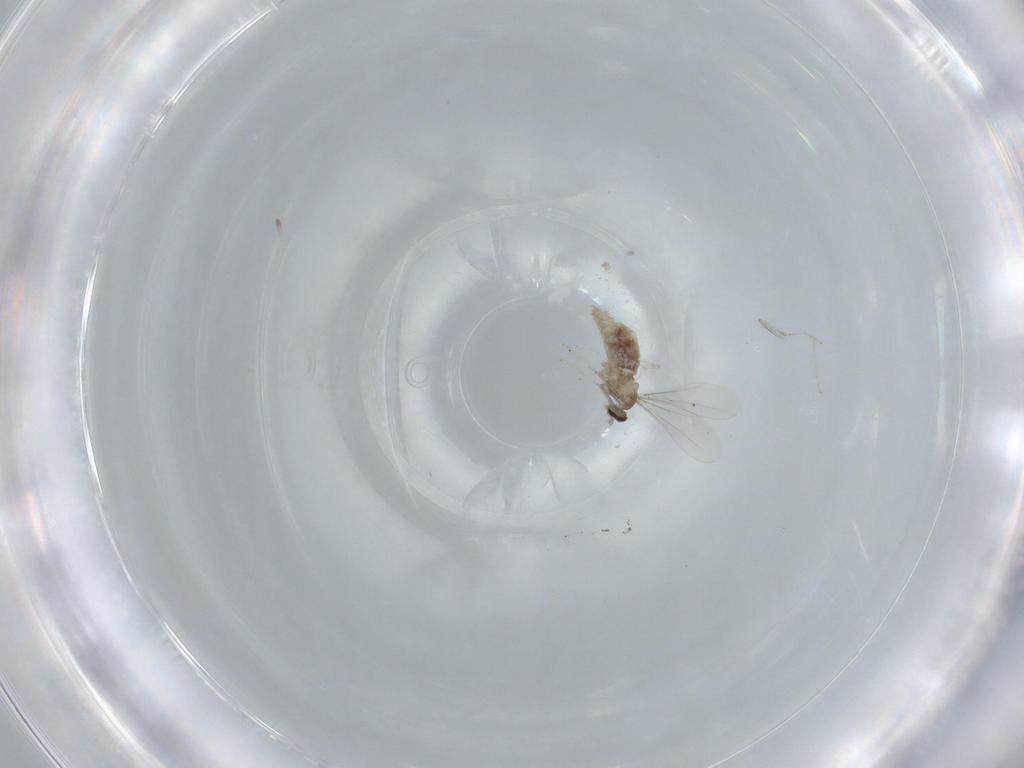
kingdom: Animalia
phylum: Arthropoda
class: Insecta
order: Diptera
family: Cecidomyiidae
